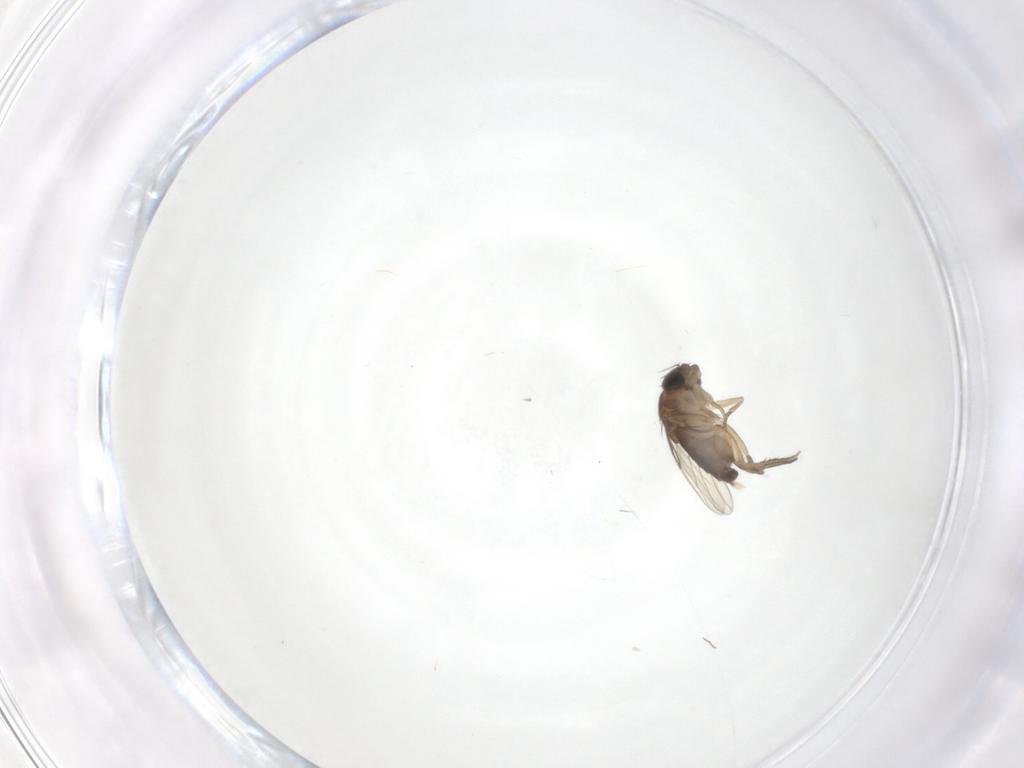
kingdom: Animalia
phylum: Arthropoda
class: Insecta
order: Diptera
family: Phoridae
